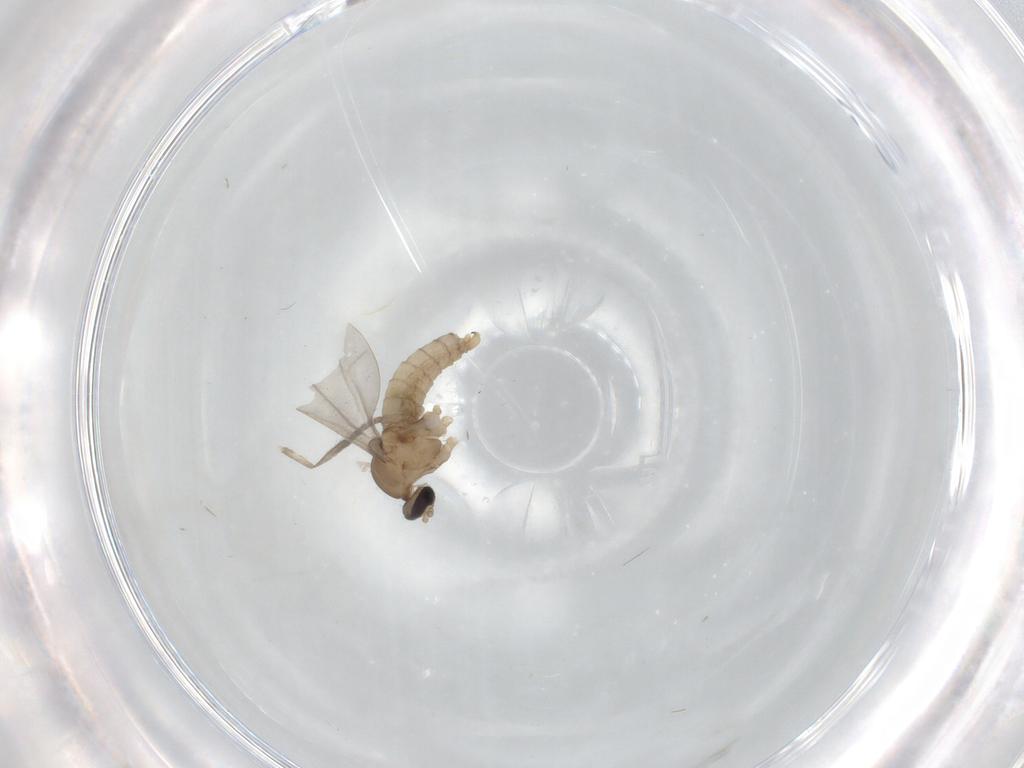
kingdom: Animalia
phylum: Arthropoda
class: Insecta
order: Diptera
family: Cecidomyiidae
